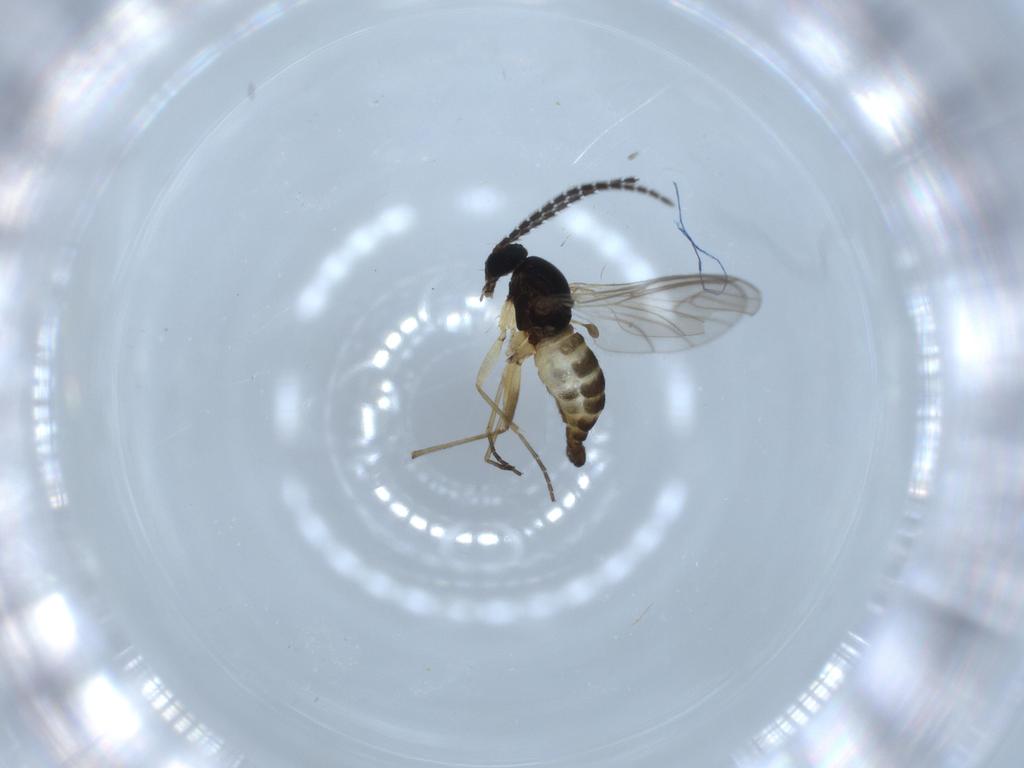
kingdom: Animalia
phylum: Arthropoda
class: Insecta
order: Diptera
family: Sciaridae
